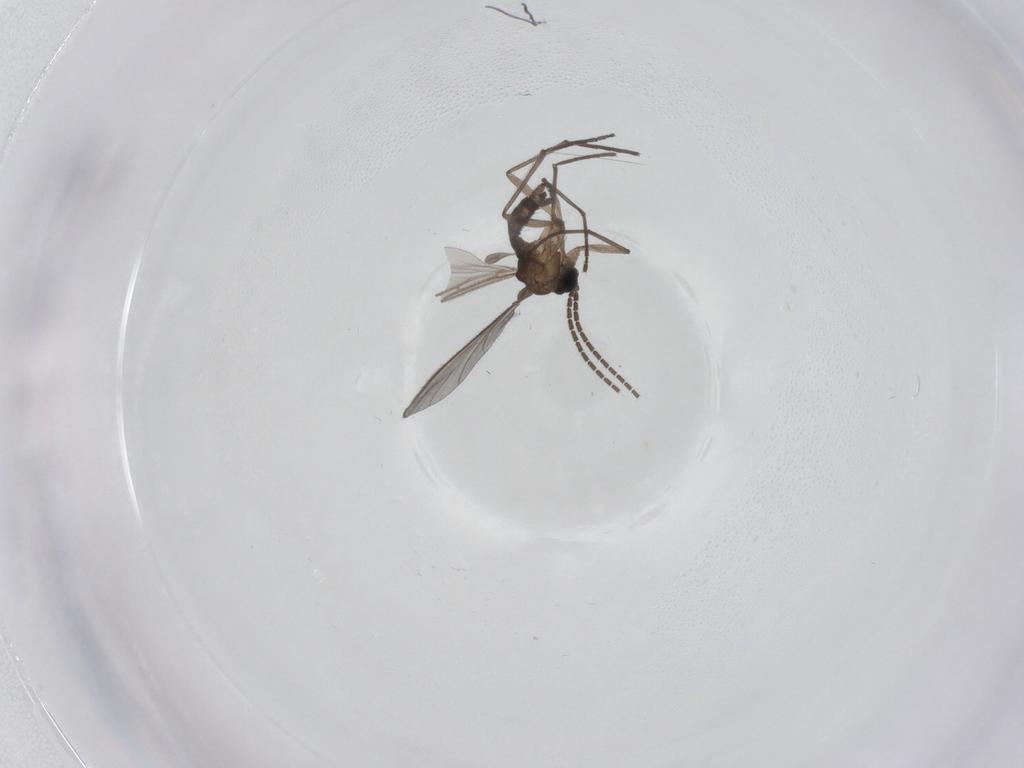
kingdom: Animalia
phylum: Arthropoda
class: Insecta
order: Diptera
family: Sciaridae
